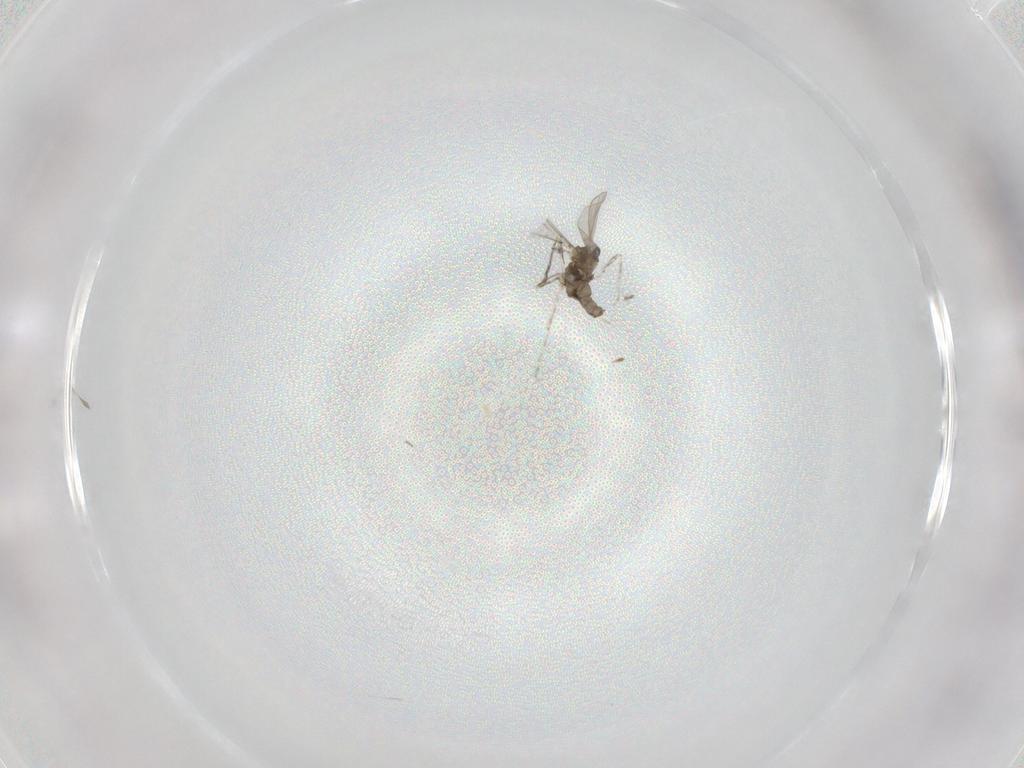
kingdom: Animalia
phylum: Arthropoda
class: Insecta
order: Diptera
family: Cecidomyiidae
